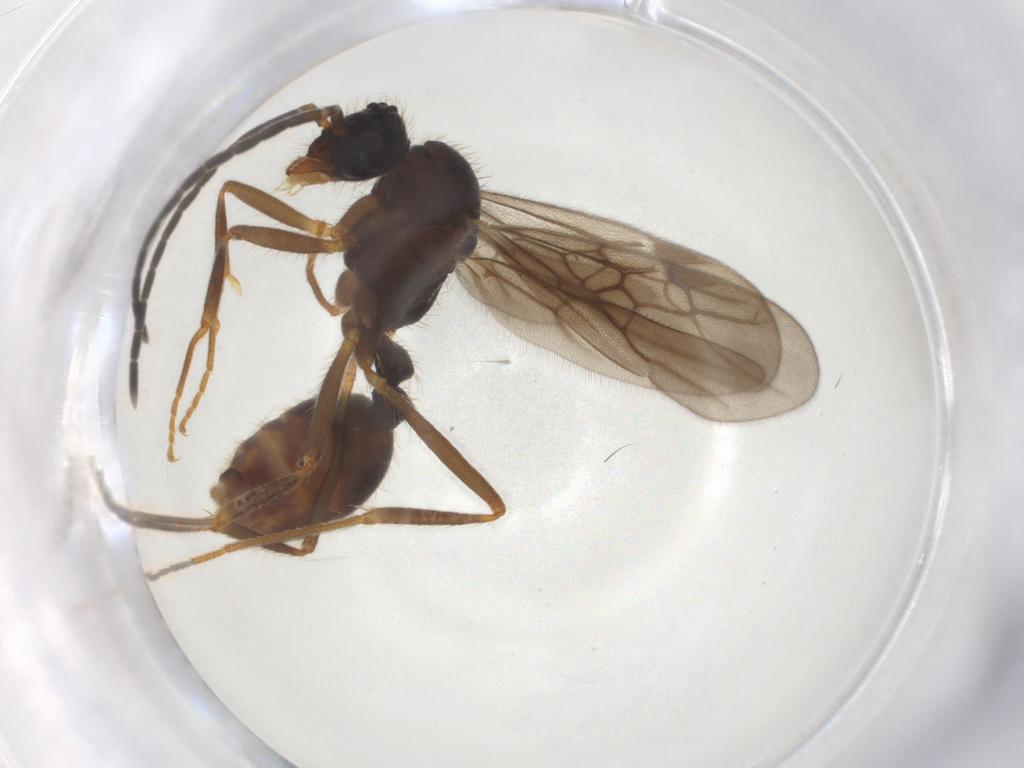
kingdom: Animalia
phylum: Arthropoda
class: Insecta
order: Hymenoptera
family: Formicidae
